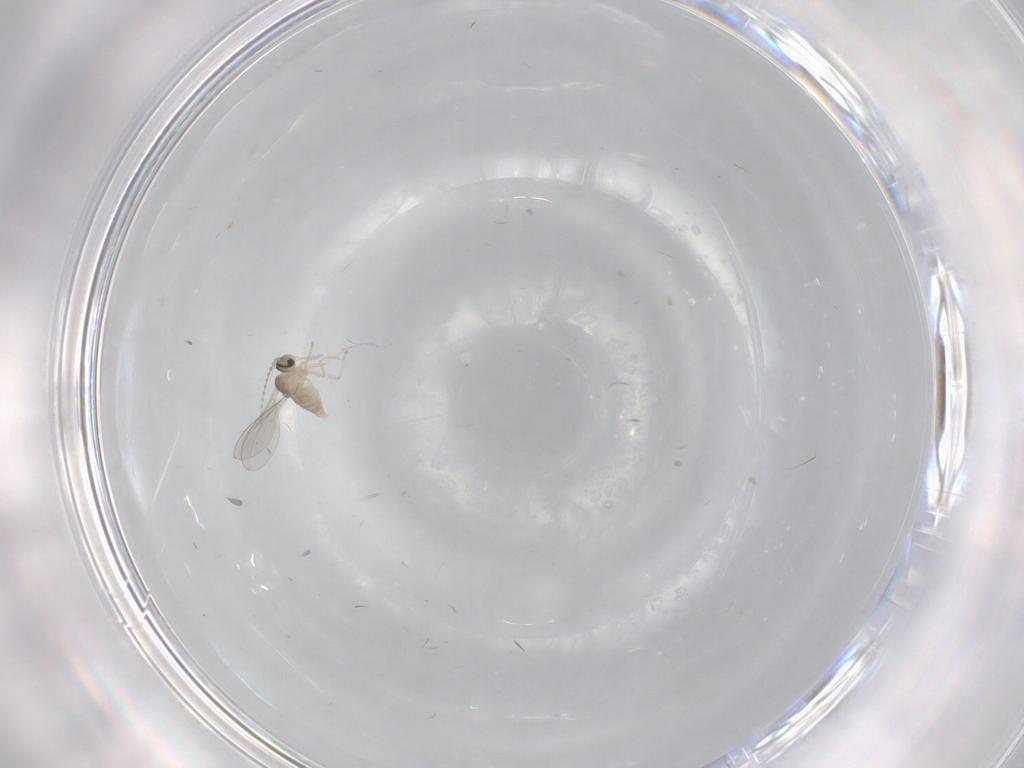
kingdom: Animalia
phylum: Arthropoda
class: Insecta
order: Diptera
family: Cecidomyiidae
